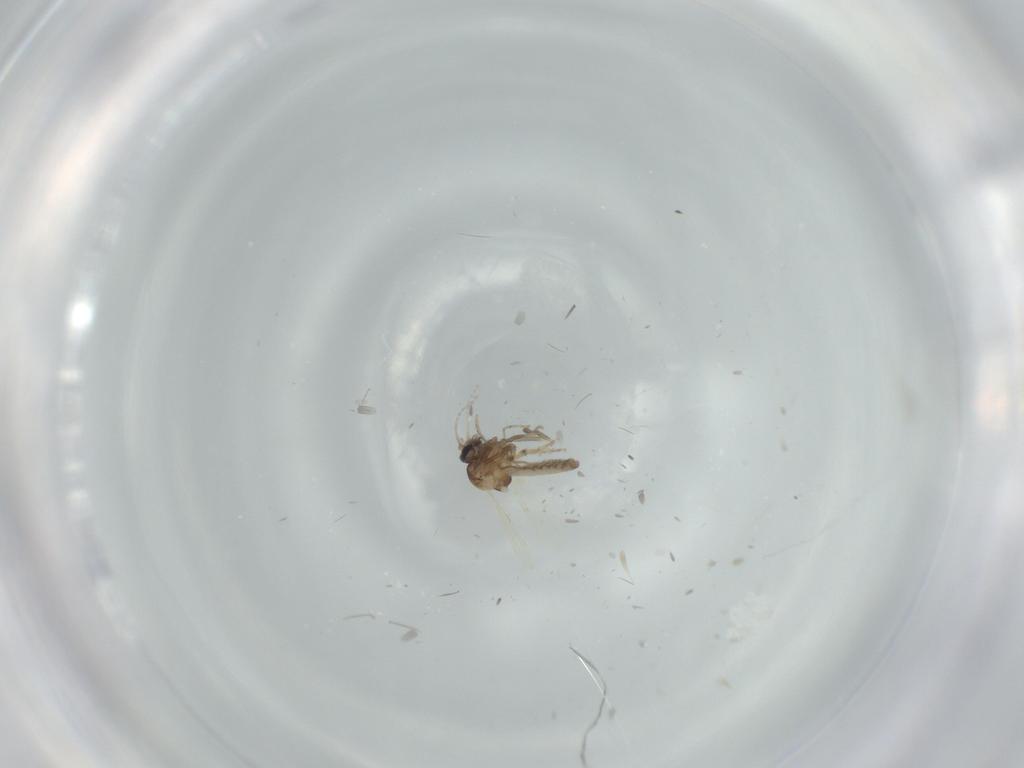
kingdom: Animalia
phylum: Arthropoda
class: Insecta
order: Diptera
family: Ceratopogonidae
